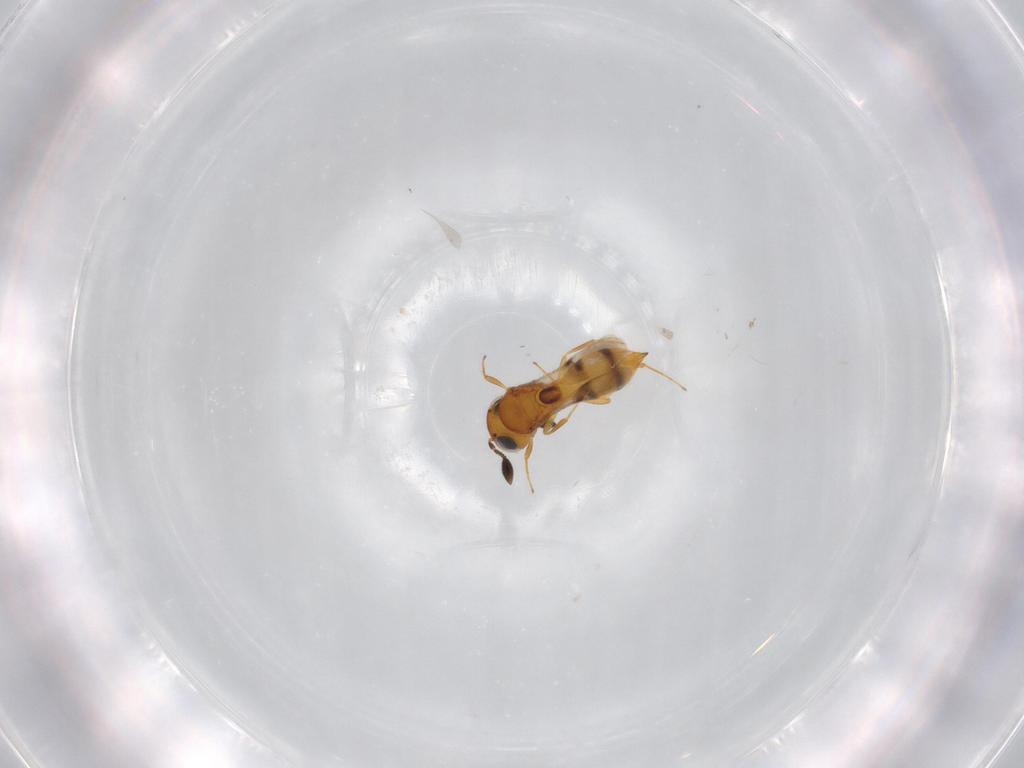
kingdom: Animalia
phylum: Arthropoda
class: Insecta
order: Hymenoptera
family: Scelionidae
